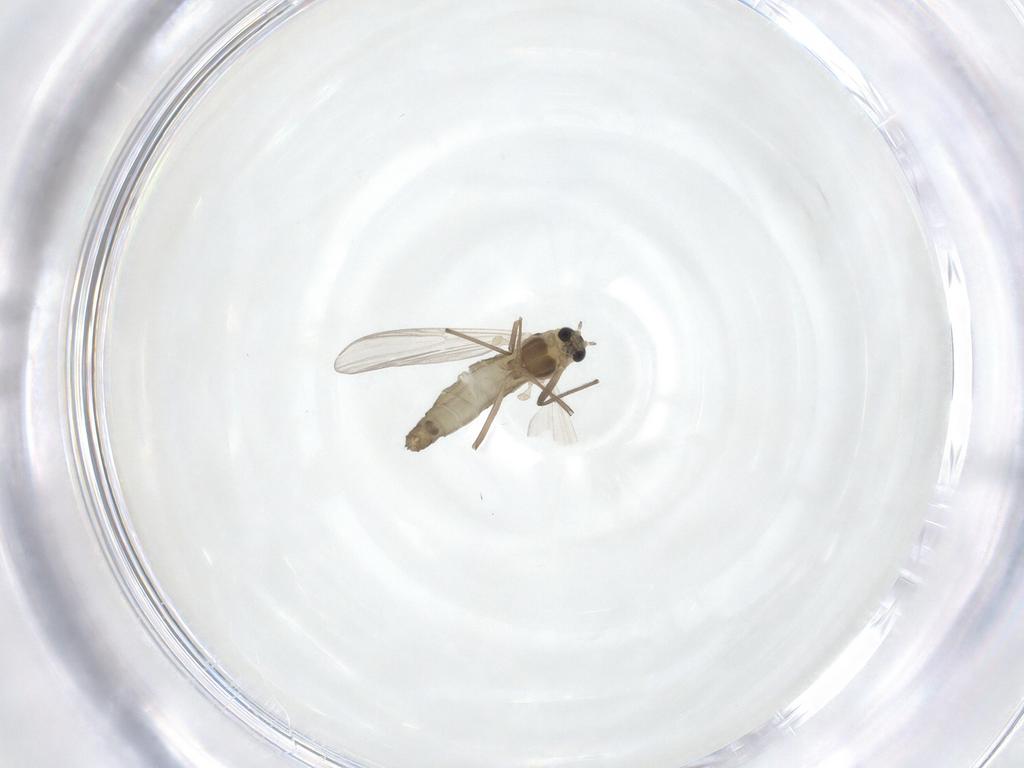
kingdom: Animalia
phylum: Arthropoda
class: Insecta
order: Diptera
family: Chironomidae
